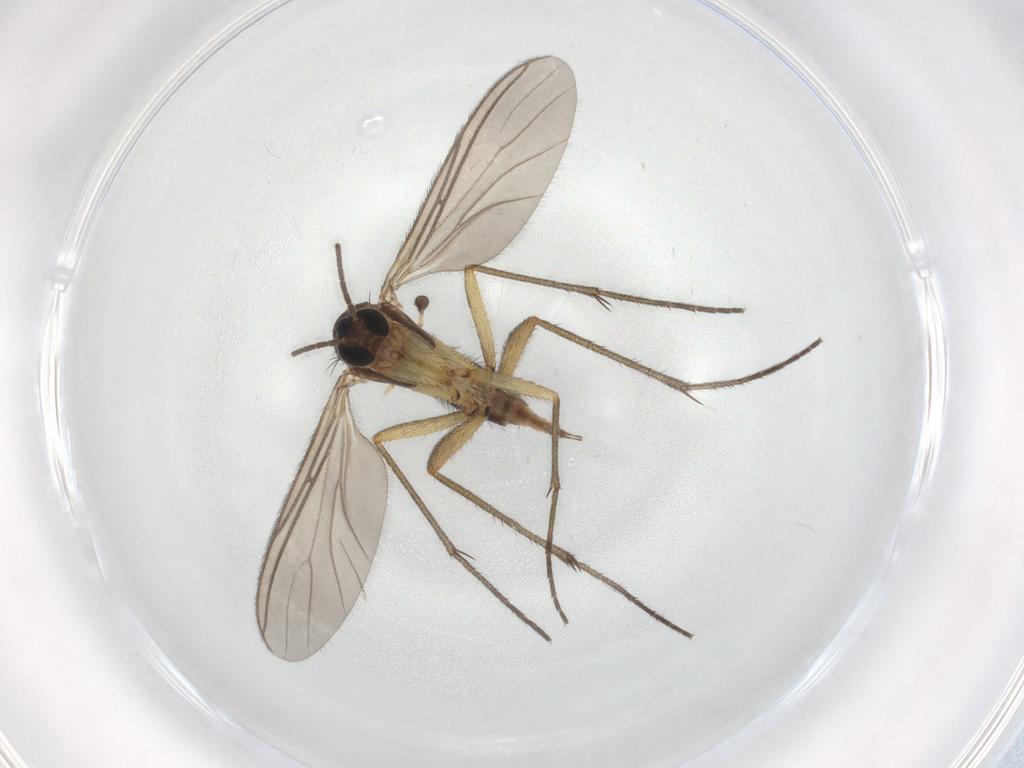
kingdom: Animalia
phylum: Arthropoda
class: Insecta
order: Diptera
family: Sciaridae
